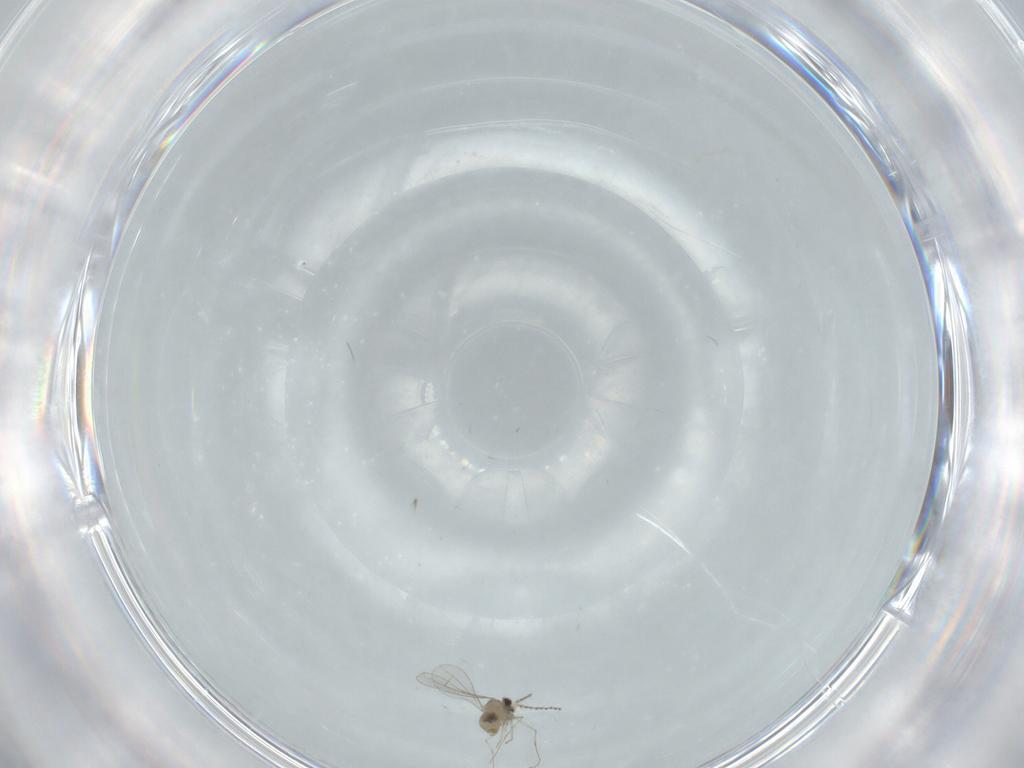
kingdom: Animalia
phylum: Arthropoda
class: Insecta
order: Diptera
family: Cecidomyiidae
